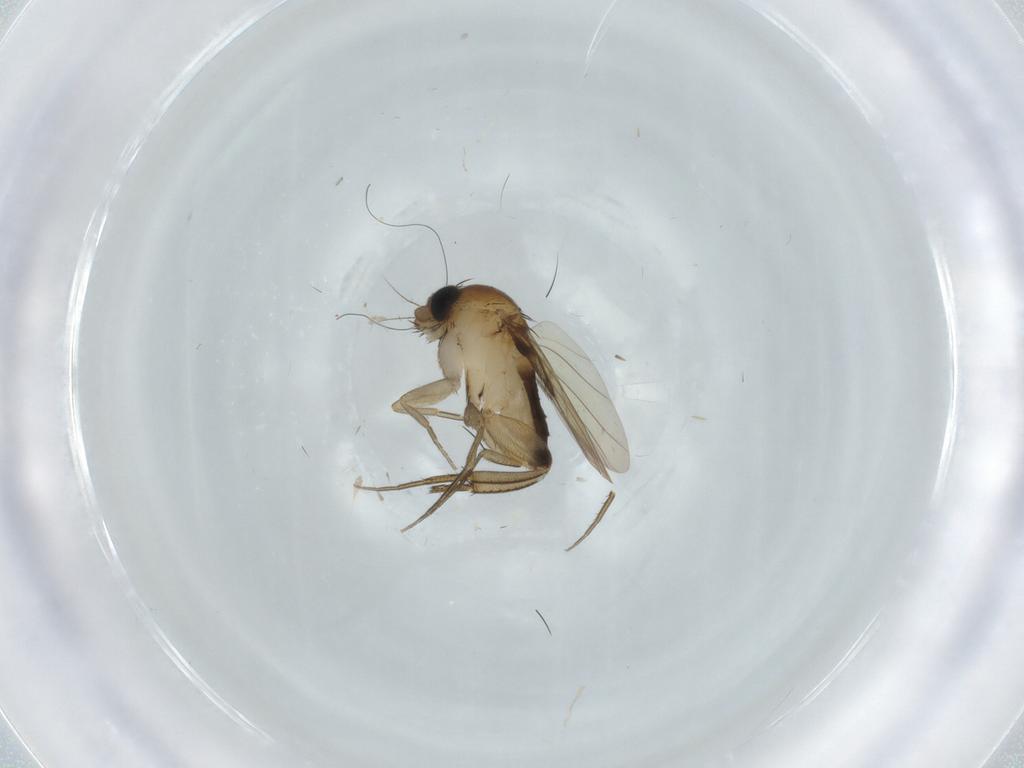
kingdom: Animalia
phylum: Arthropoda
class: Insecta
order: Diptera
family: Phoridae
